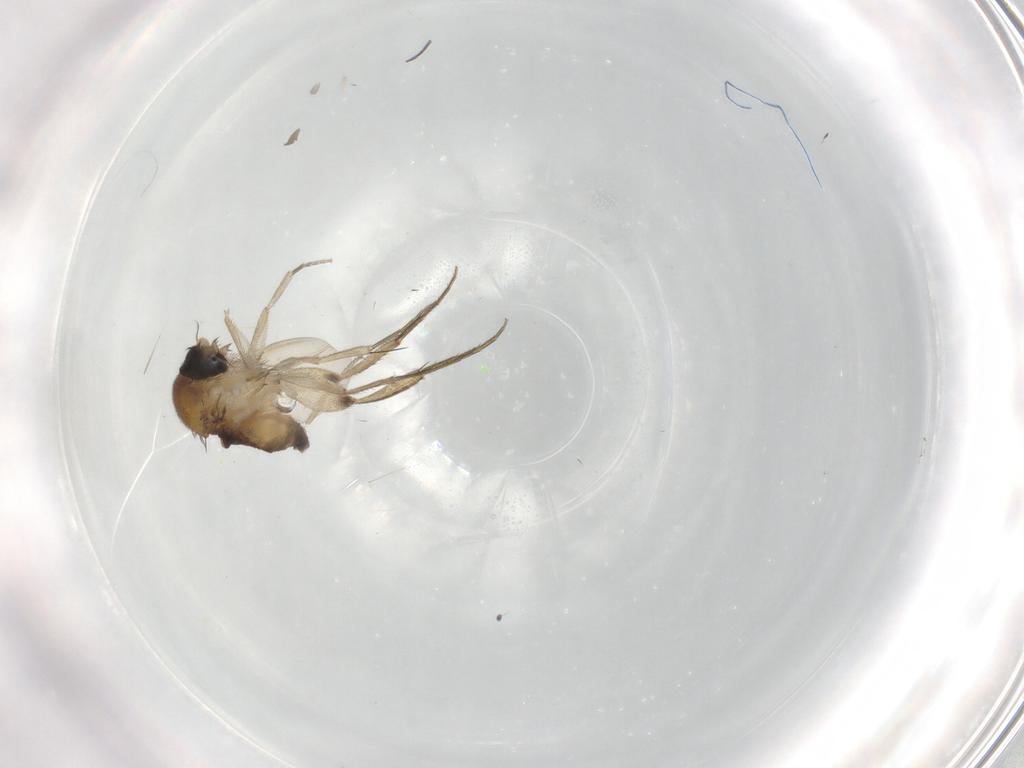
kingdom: Animalia
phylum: Arthropoda
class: Insecta
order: Diptera
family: Phoridae
